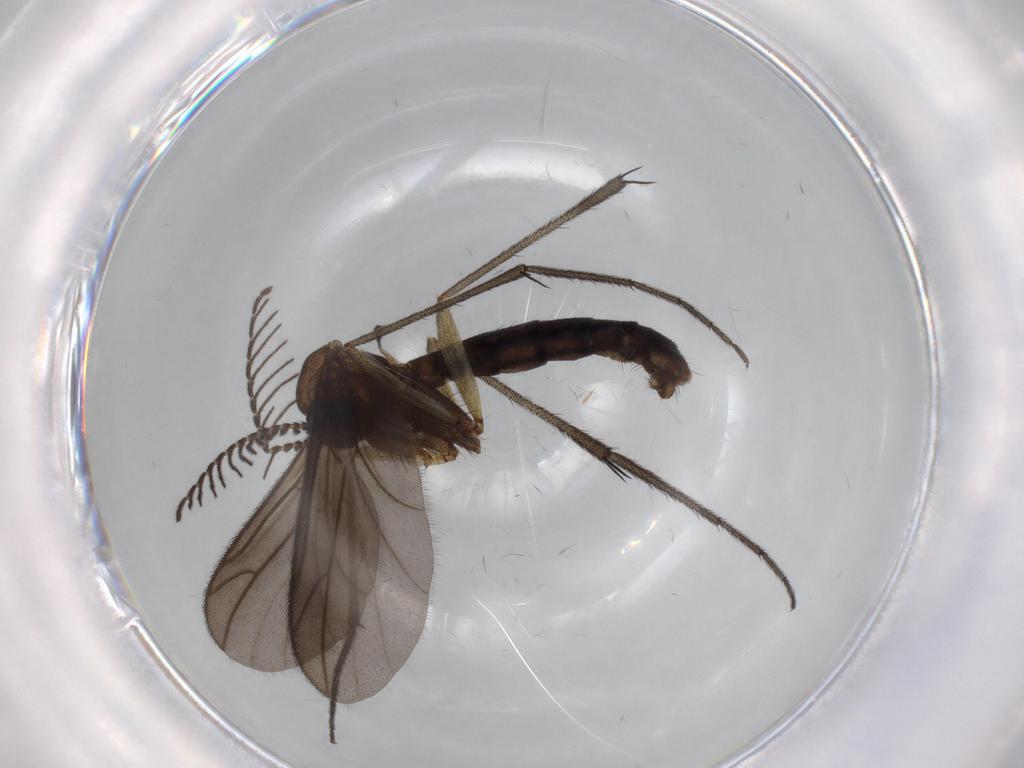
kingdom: Animalia
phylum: Arthropoda
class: Insecta
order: Diptera
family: Ditomyiidae
